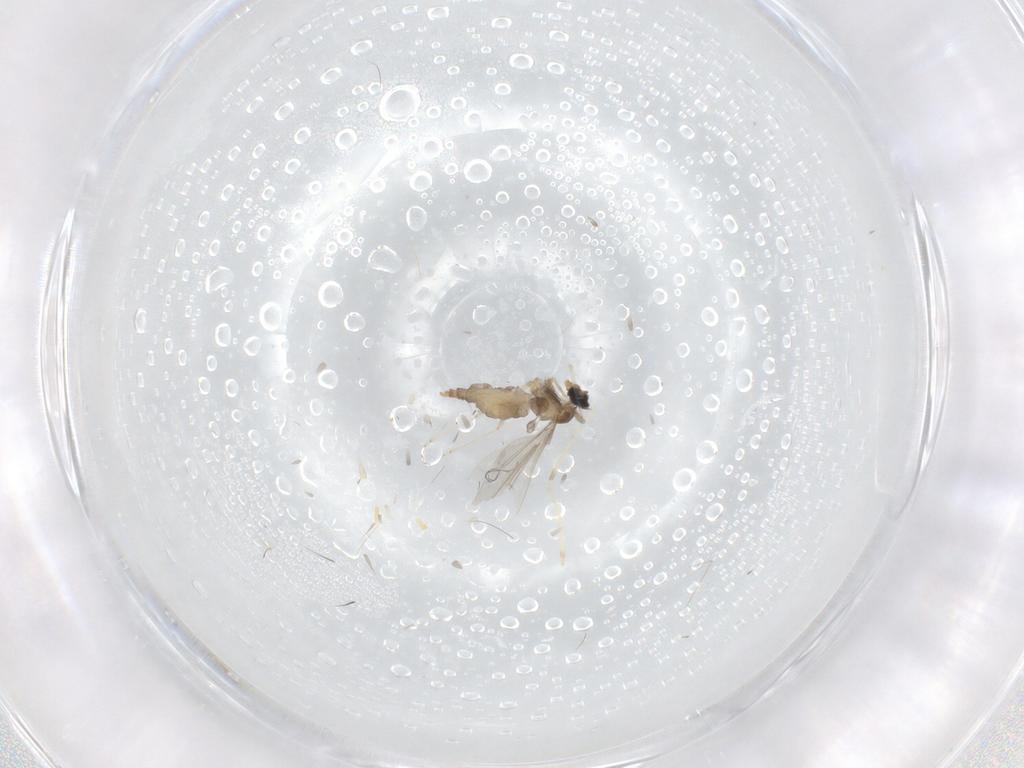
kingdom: Animalia
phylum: Arthropoda
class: Insecta
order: Diptera
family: Cecidomyiidae
